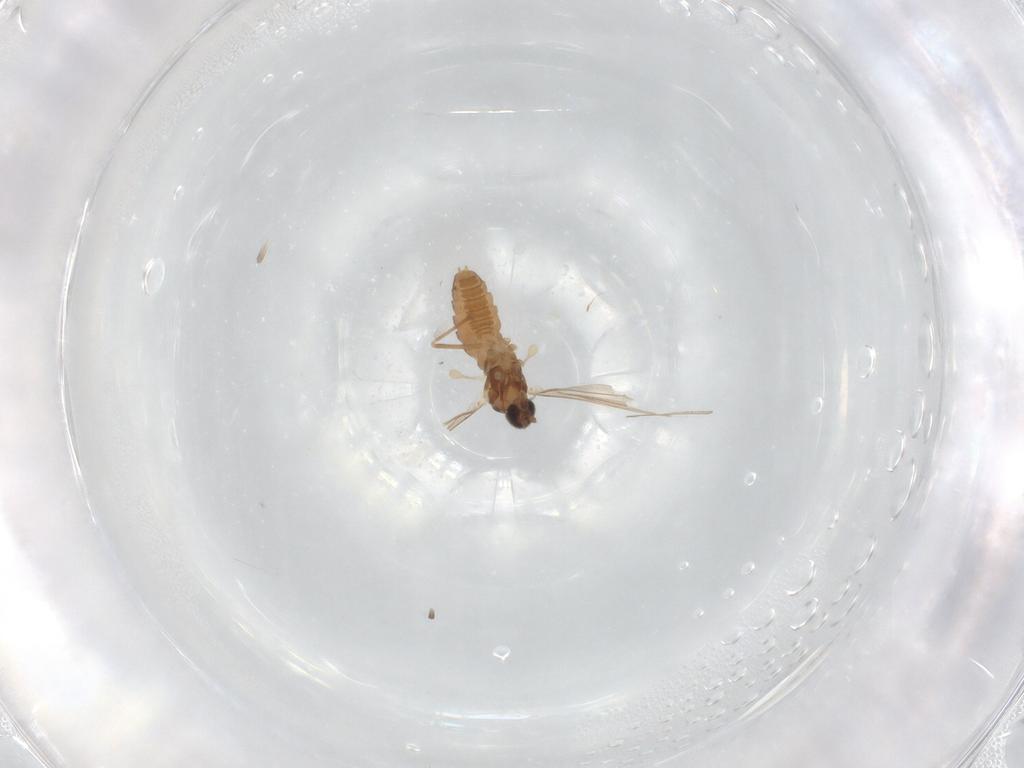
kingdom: Animalia
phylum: Arthropoda
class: Insecta
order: Diptera
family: Cecidomyiidae
